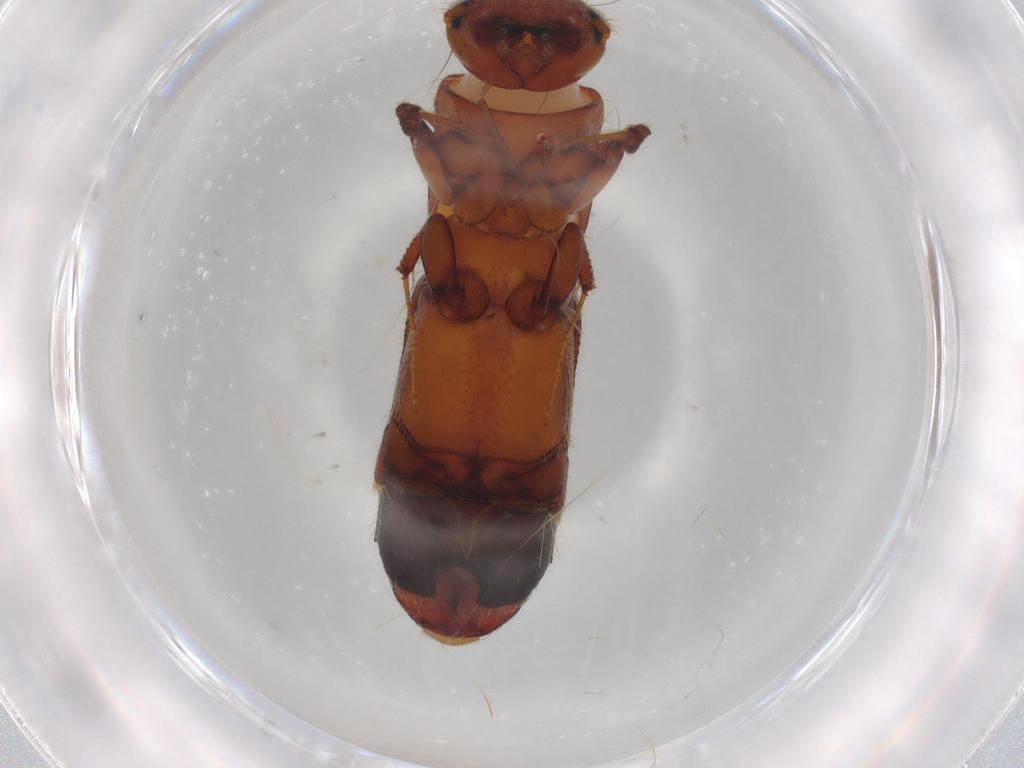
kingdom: Animalia
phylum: Arthropoda
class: Insecta
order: Coleoptera
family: Curculionidae
